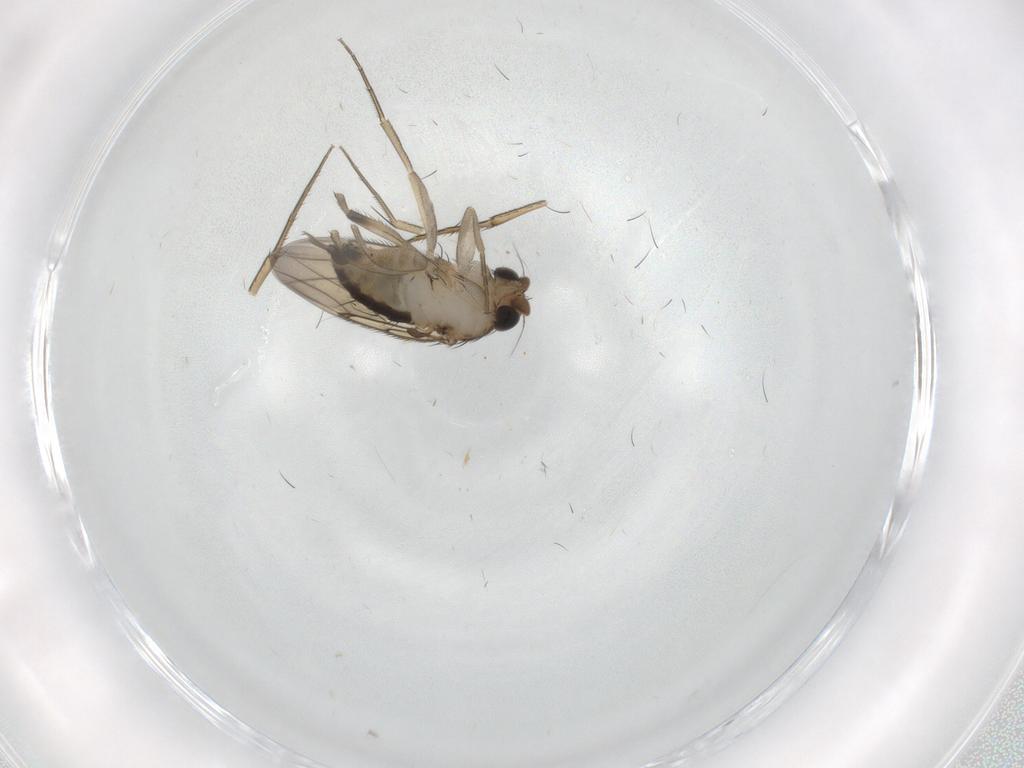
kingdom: Animalia
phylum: Arthropoda
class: Insecta
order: Diptera
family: Phoridae
